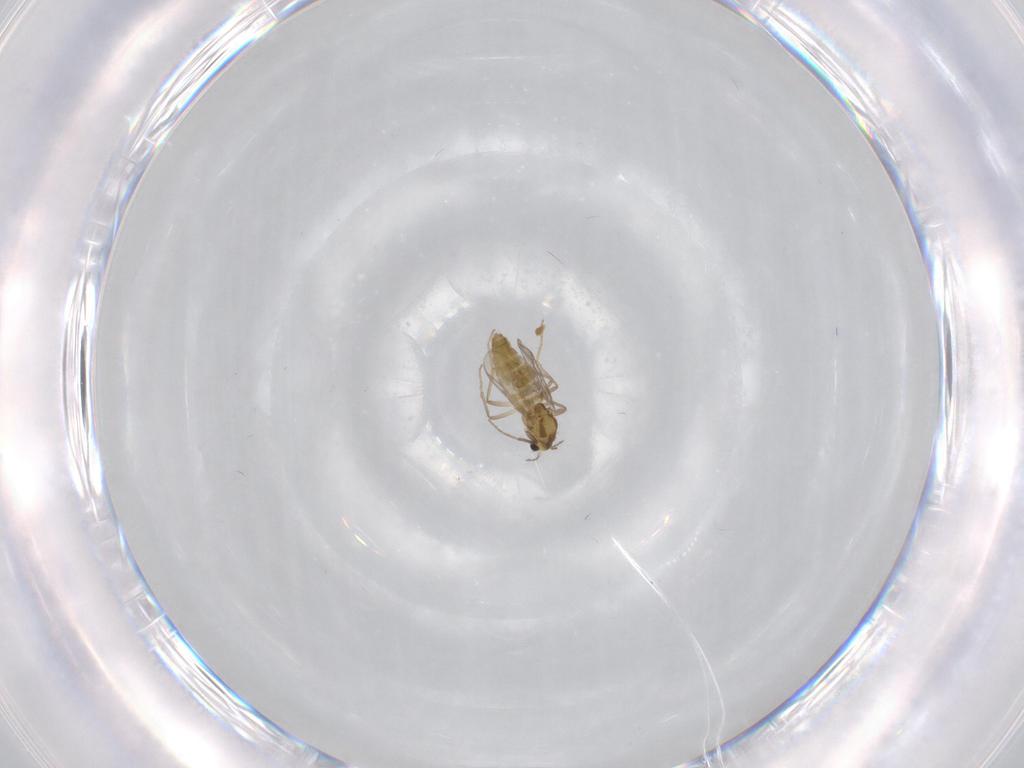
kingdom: Animalia
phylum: Arthropoda
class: Insecta
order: Diptera
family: Chironomidae
